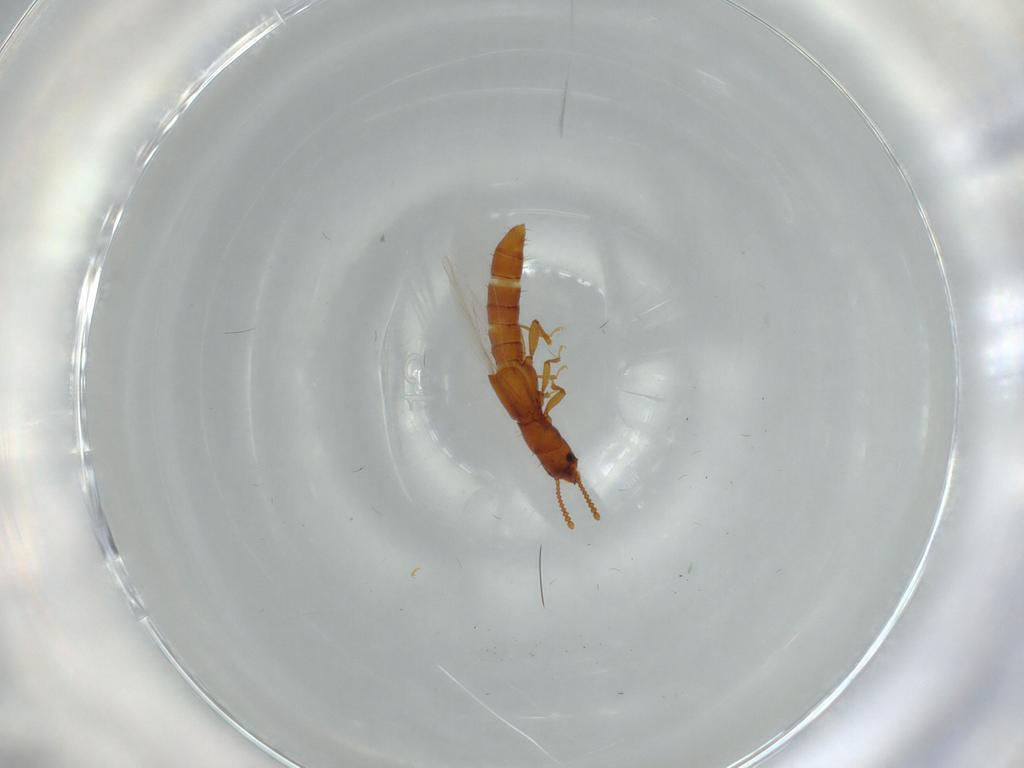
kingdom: Animalia
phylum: Arthropoda
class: Insecta
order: Coleoptera
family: Staphylinidae
